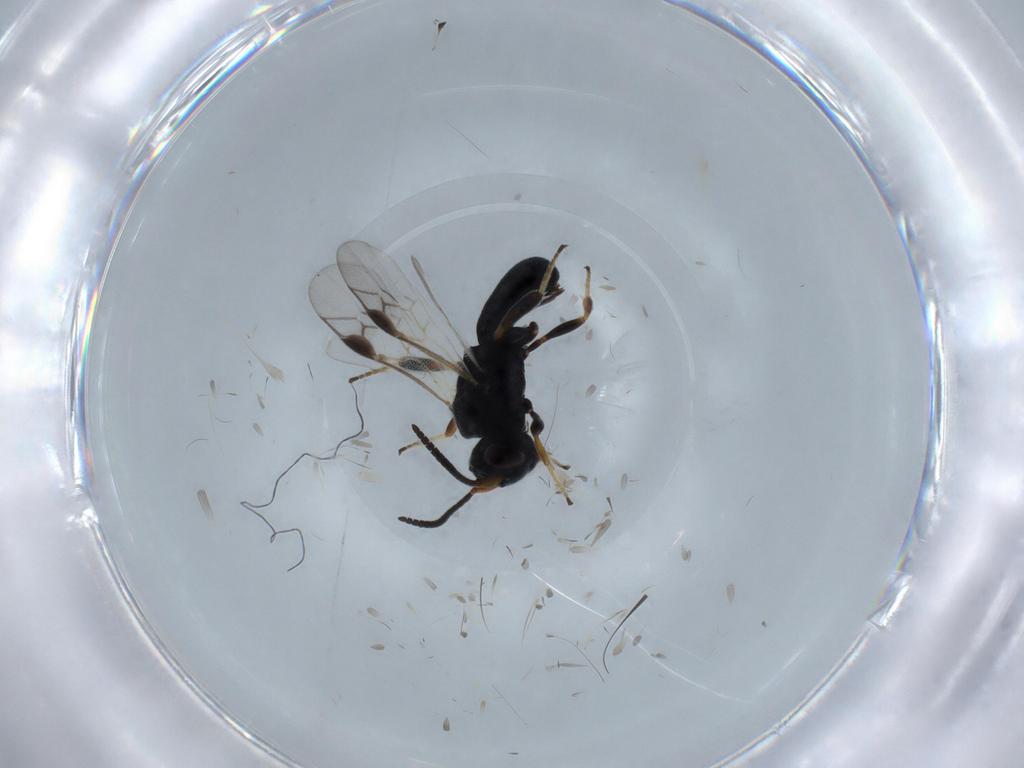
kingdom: Animalia
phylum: Arthropoda
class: Insecta
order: Hymenoptera
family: Braconidae
